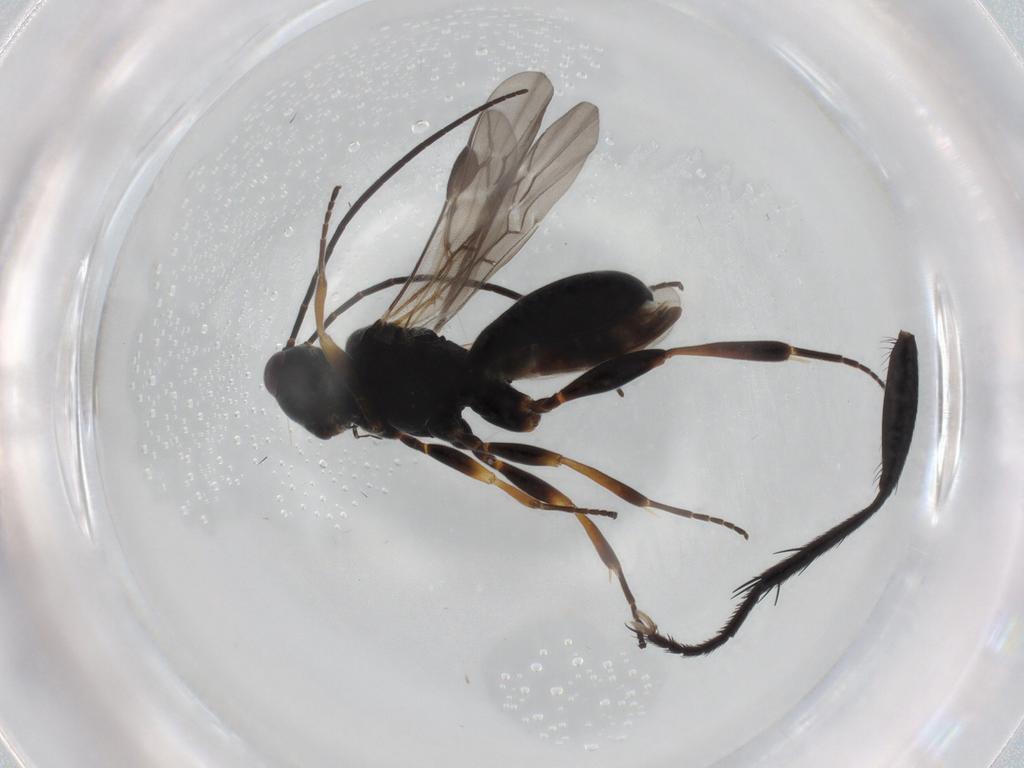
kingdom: Animalia
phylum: Arthropoda
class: Insecta
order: Hymenoptera
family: Braconidae
